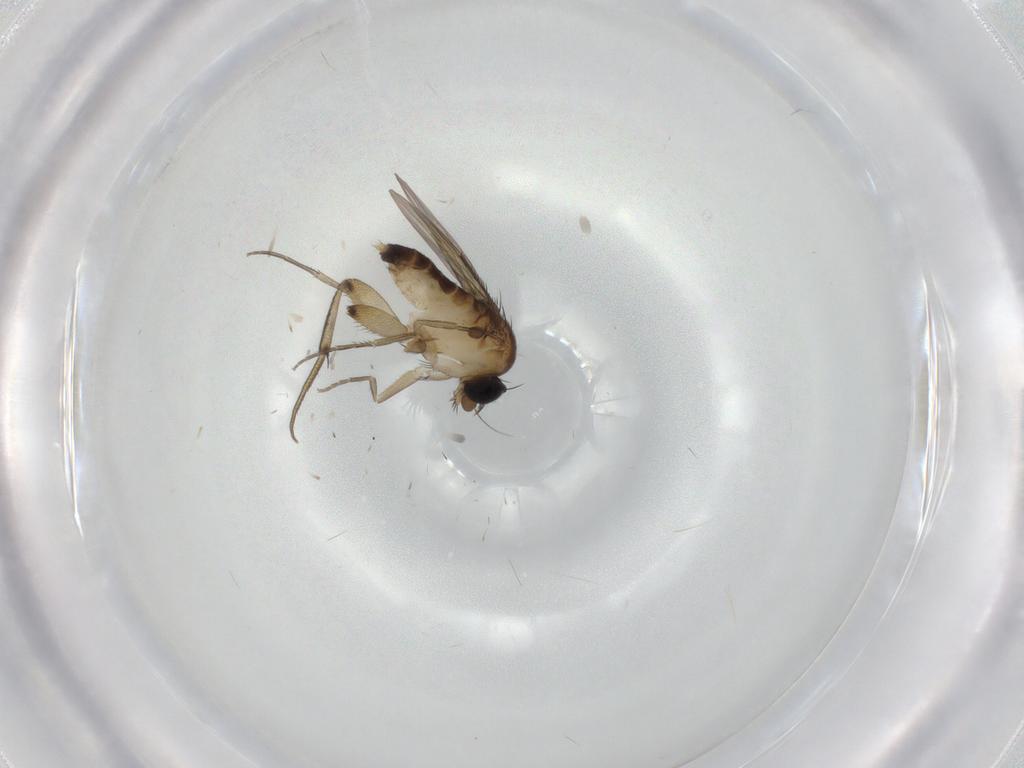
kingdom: Animalia
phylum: Arthropoda
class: Insecta
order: Diptera
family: Phoridae
